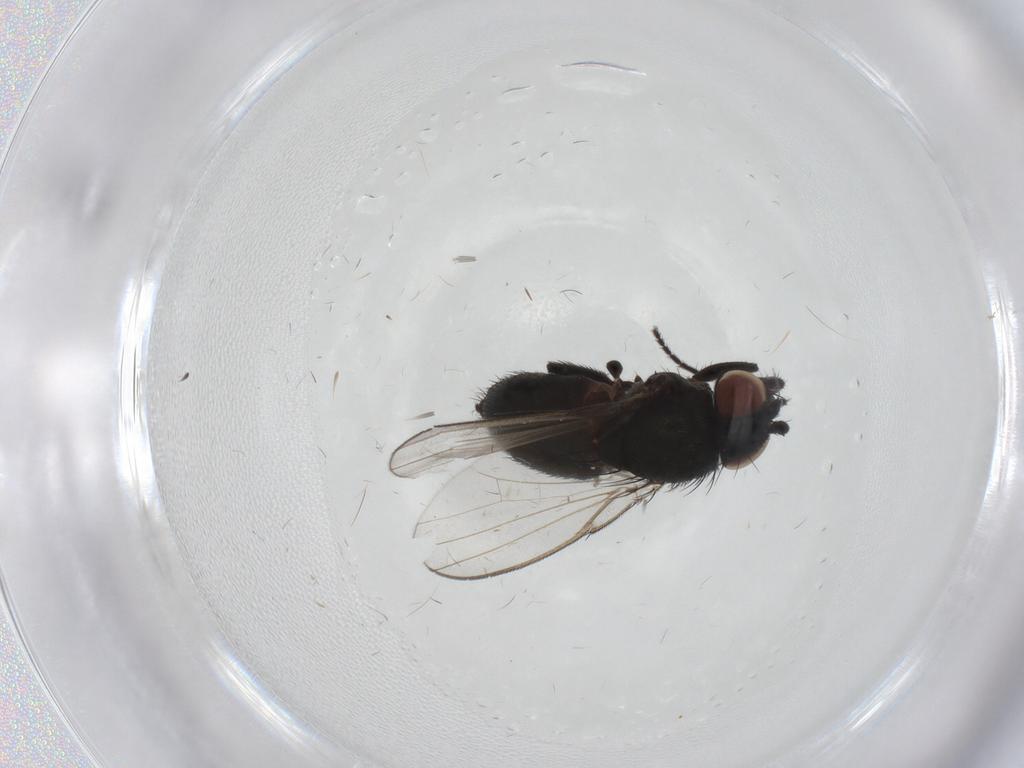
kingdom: Animalia
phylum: Arthropoda
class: Insecta
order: Diptera
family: Milichiidae
